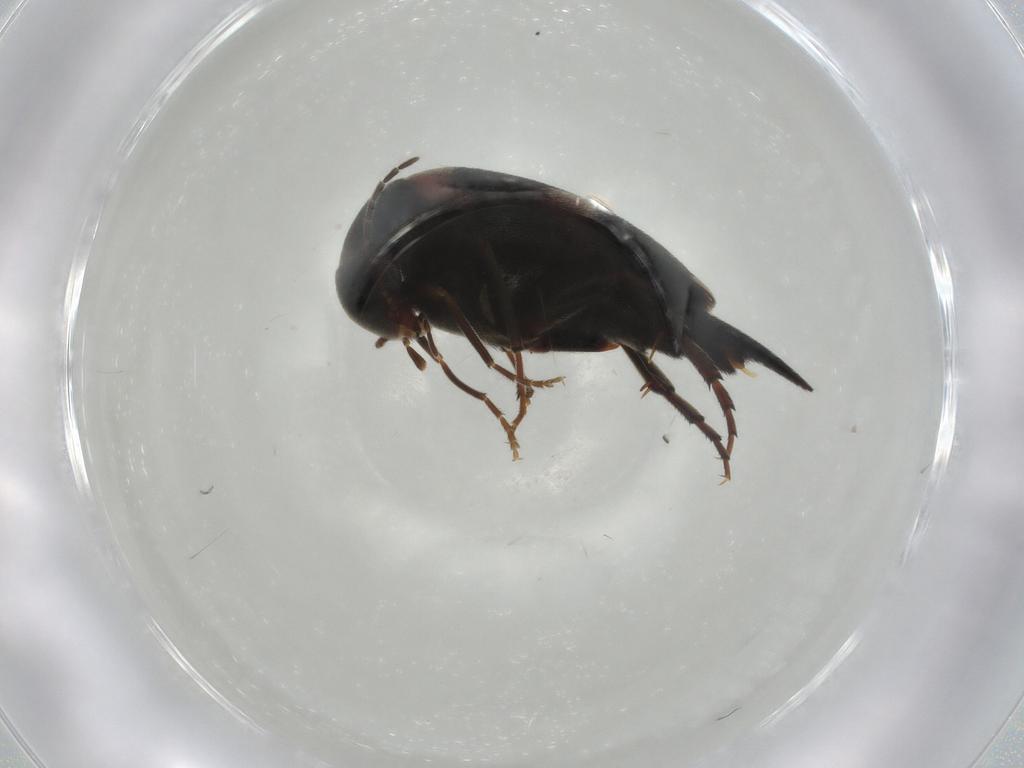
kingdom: Animalia
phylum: Arthropoda
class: Insecta
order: Coleoptera
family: Mordellidae
